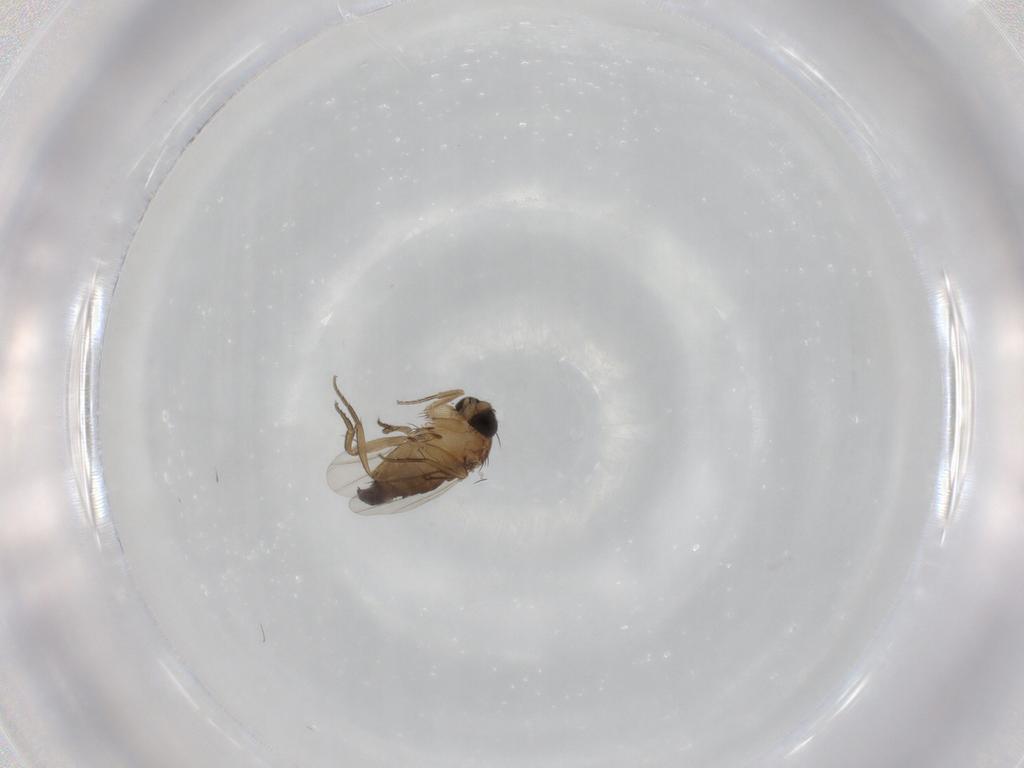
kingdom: Animalia
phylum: Arthropoda
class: Insecta
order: Diptera
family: Phoridae
